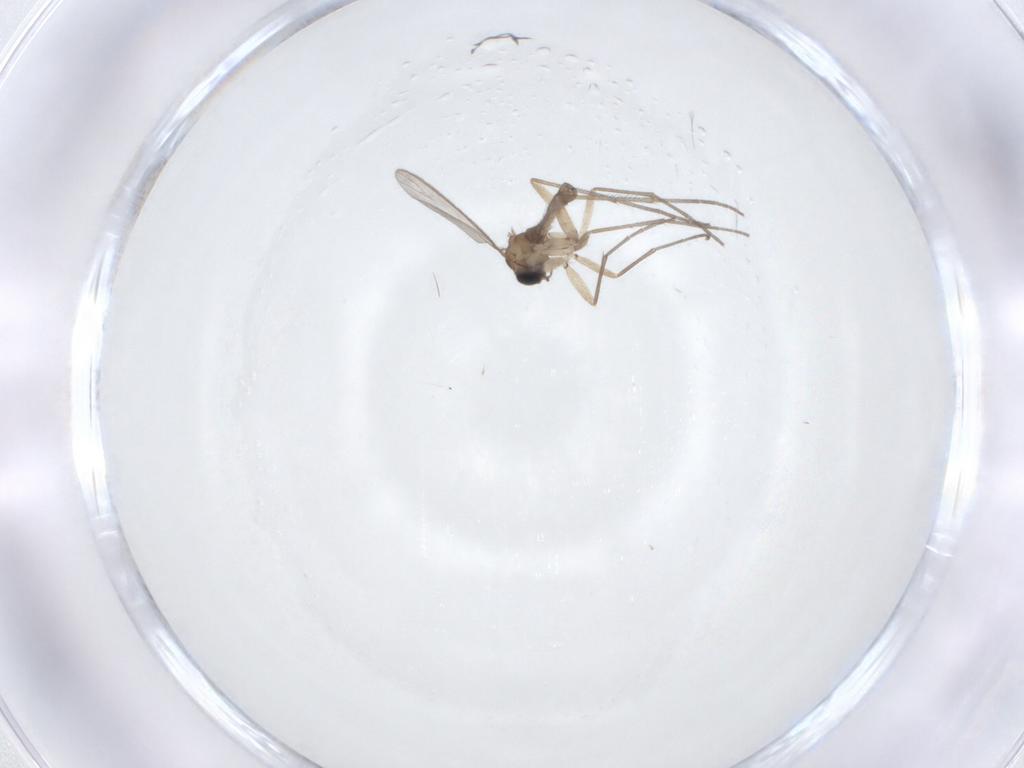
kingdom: Animalia
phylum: Arthropoda
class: Insecta
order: Diptera
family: Sciaridae
